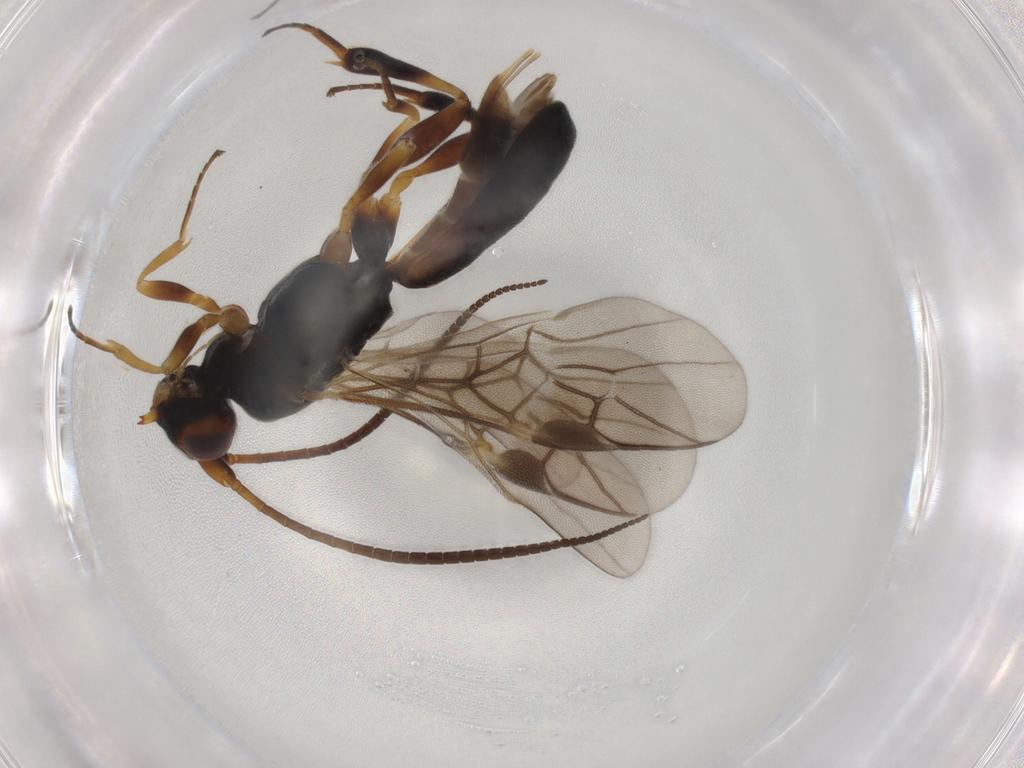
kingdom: Animalia
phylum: Arthropoda
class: Insecta
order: Hymenoptera
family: Braconidae
